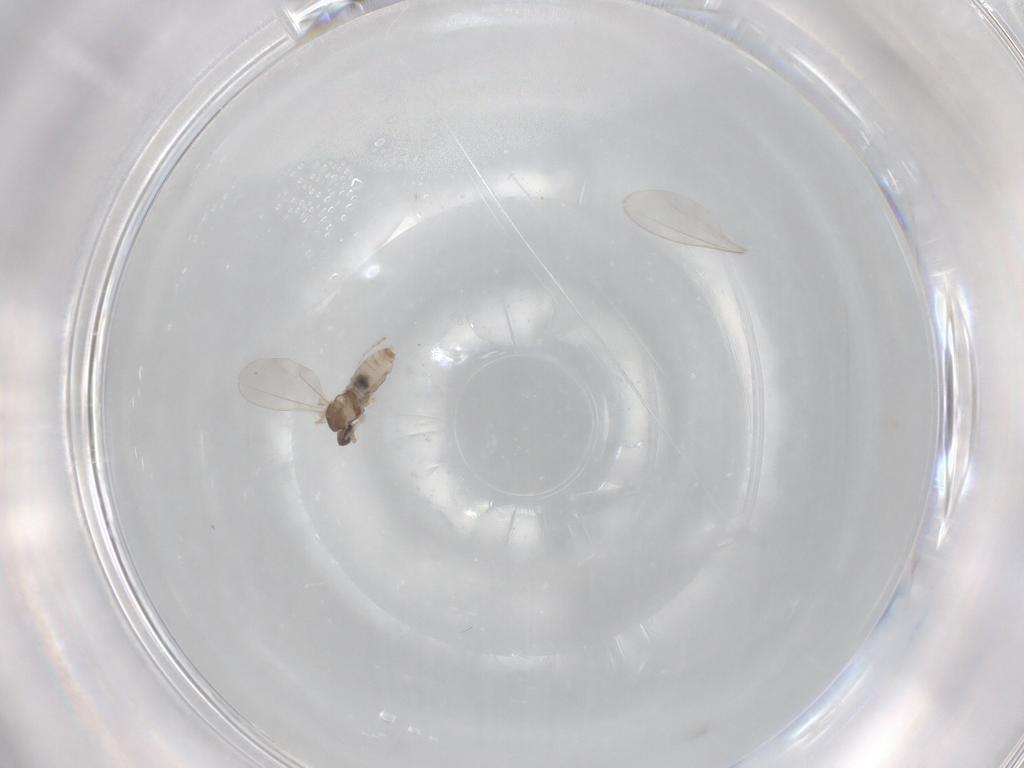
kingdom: Animalia
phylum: Arthropoda
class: Insecta
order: Diptera
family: Cecidomyiidae
